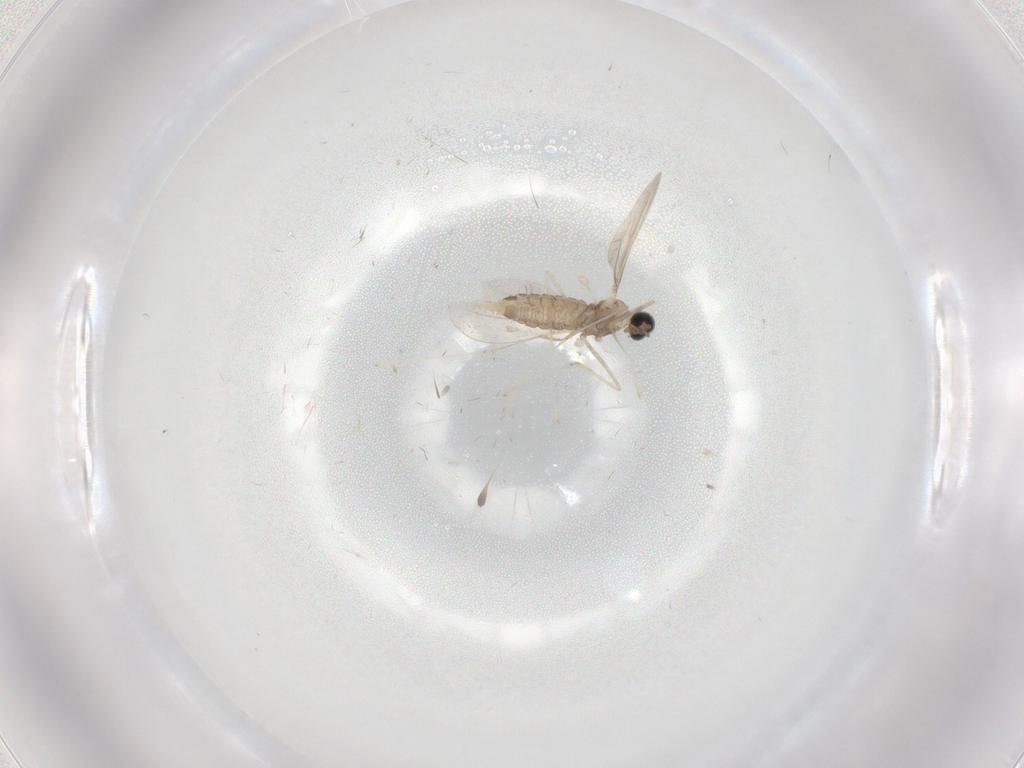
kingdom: Animalia
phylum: Arthropoda
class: Insecta
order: Diptera
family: Cecidomyiidae
